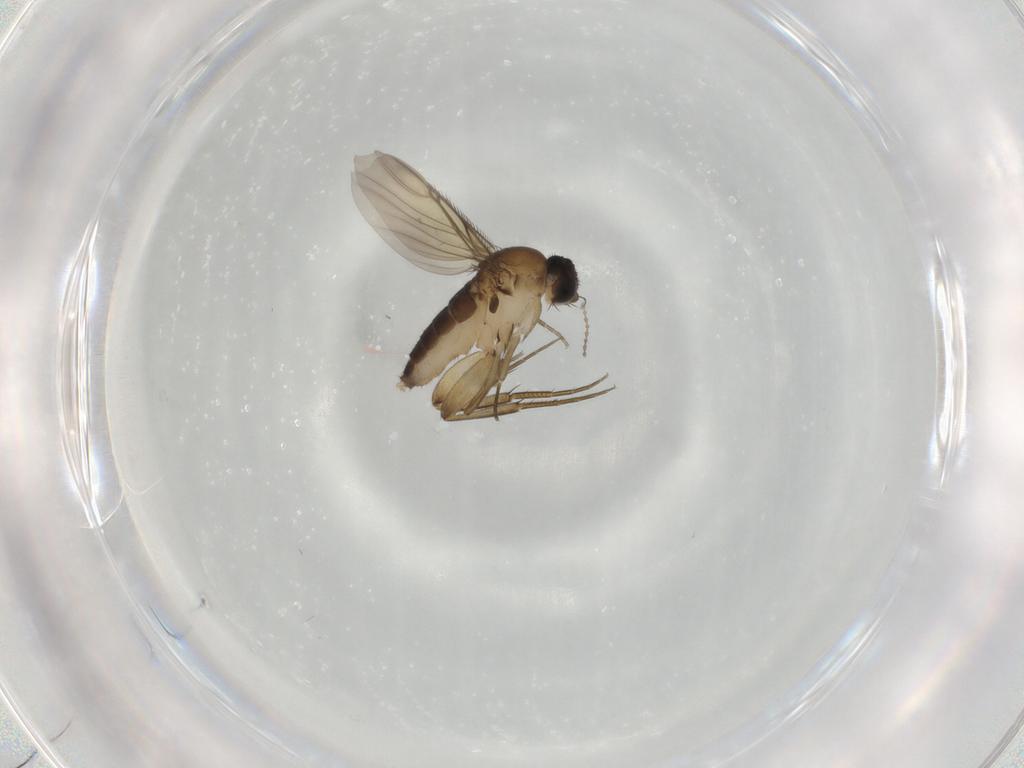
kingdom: Animalia
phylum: Arthropoda
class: Insecta
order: Diptera
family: Phoridae
